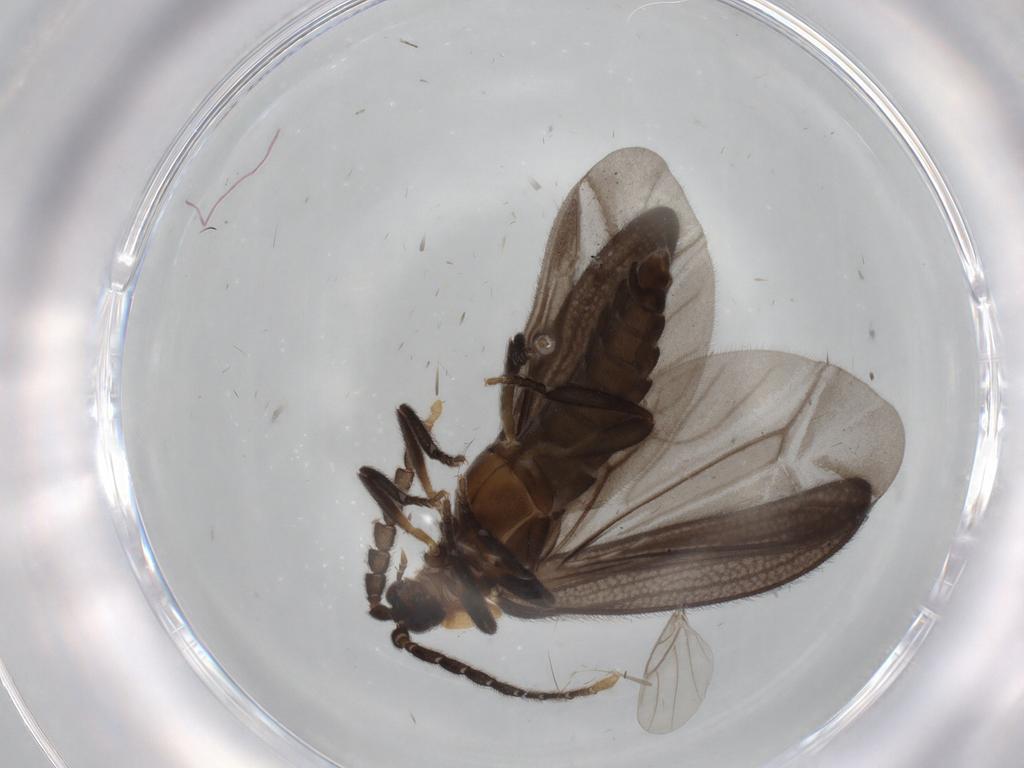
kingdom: Animalia
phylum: Arthropoda
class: Insecta
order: Coleoptera
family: Lycidae
